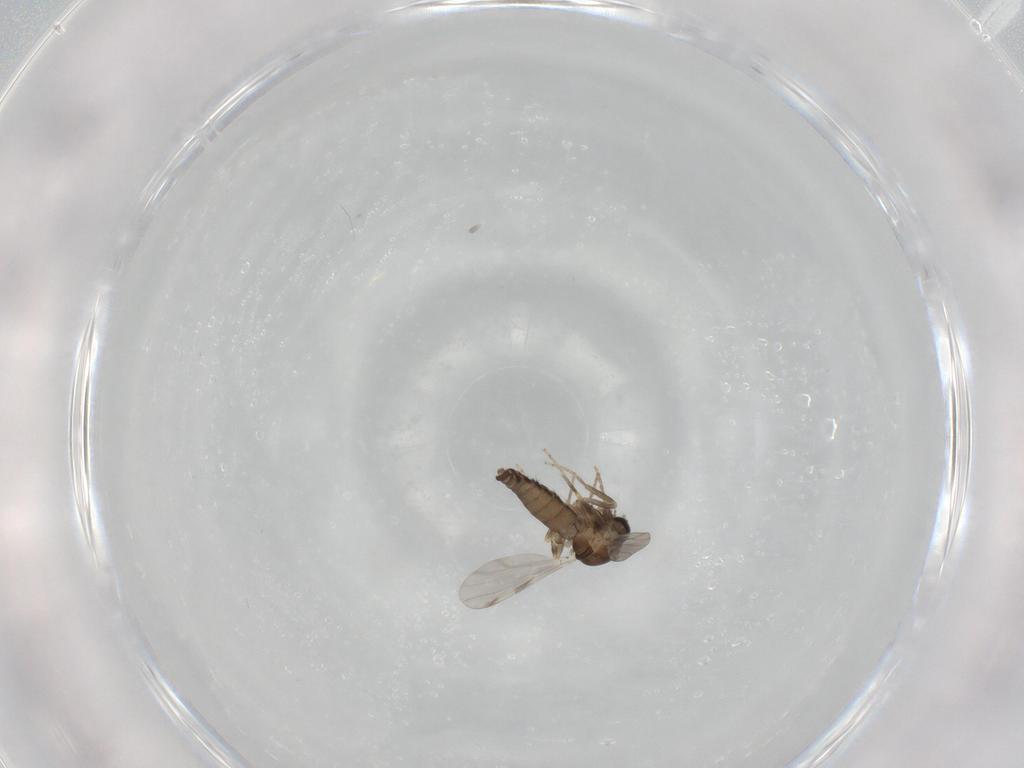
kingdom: Animalia
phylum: Arthropoda
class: Insecta
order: Diptera
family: Ceratopogonidae
